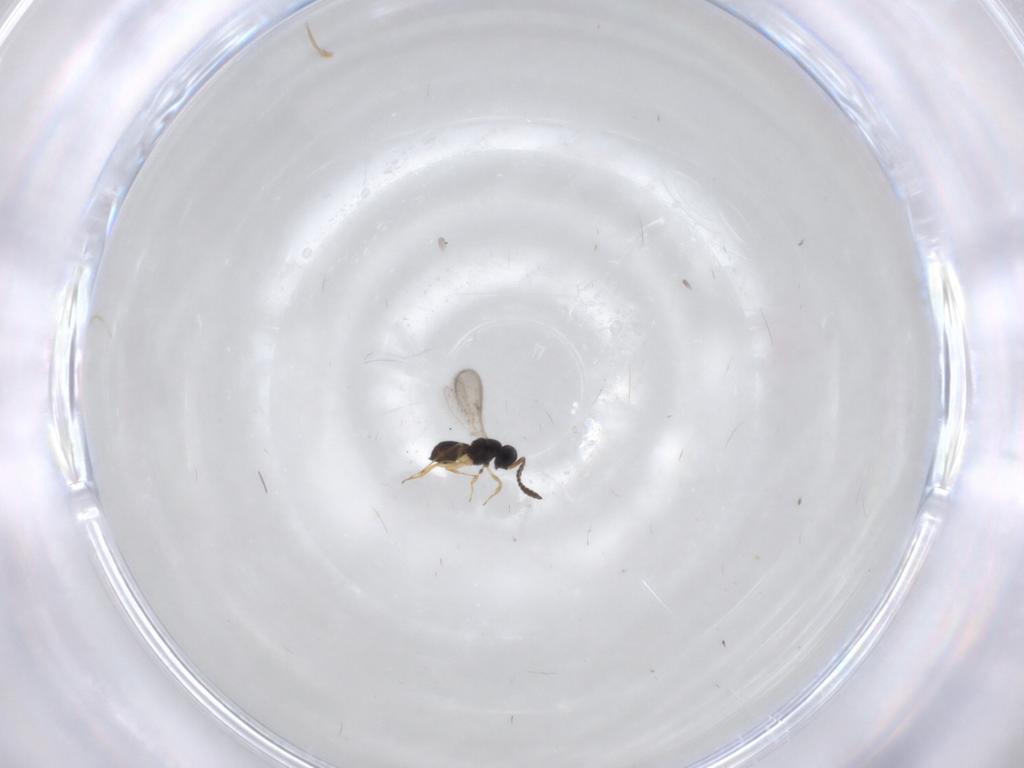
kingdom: Animalia
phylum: Arthropoda
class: Insecta
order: Hymenoptera
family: Scelionidae
